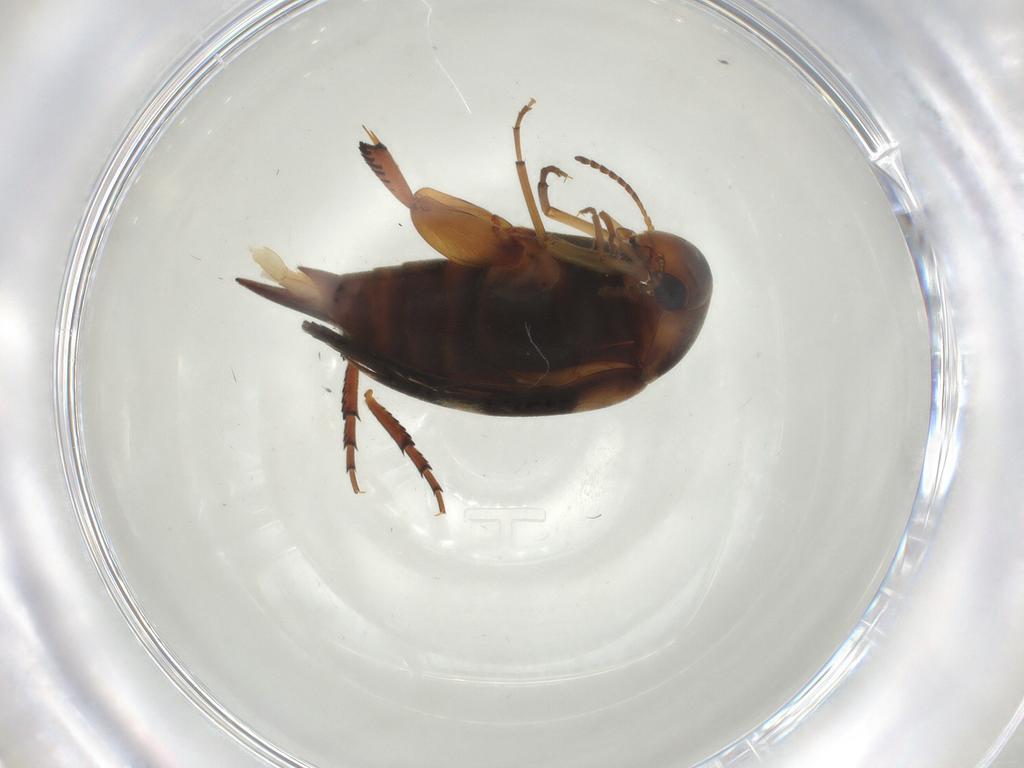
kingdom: Animalia
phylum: Arthropoda
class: Insecta
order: Coleoptera
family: Mordellidae
